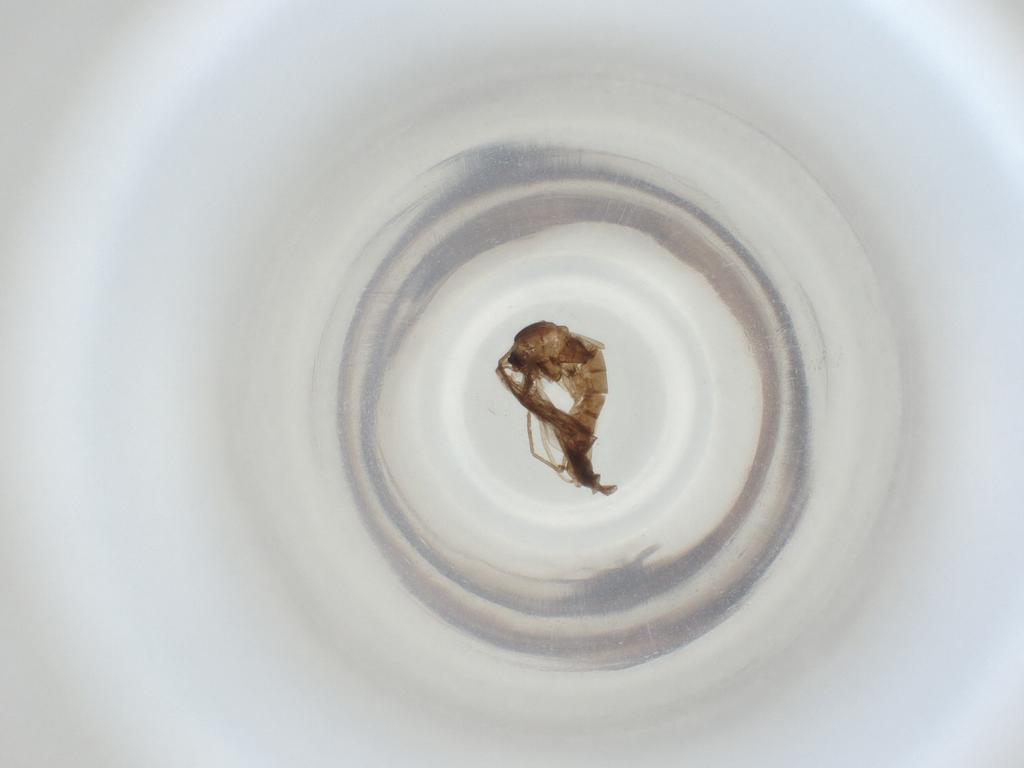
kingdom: Animalia
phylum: Arthropoda
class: Insecta
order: Diptera
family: Cecidomyiidae
